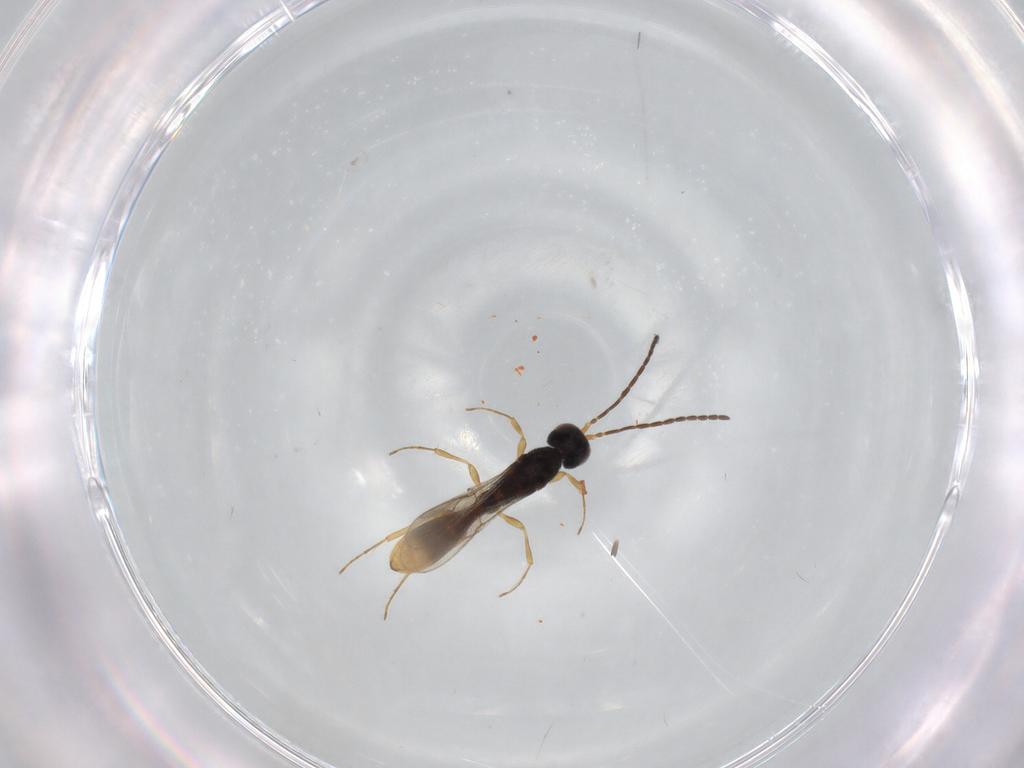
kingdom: Animalia
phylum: Arthropoda
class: Insecta
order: Hymenoptera
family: Scelionidae
